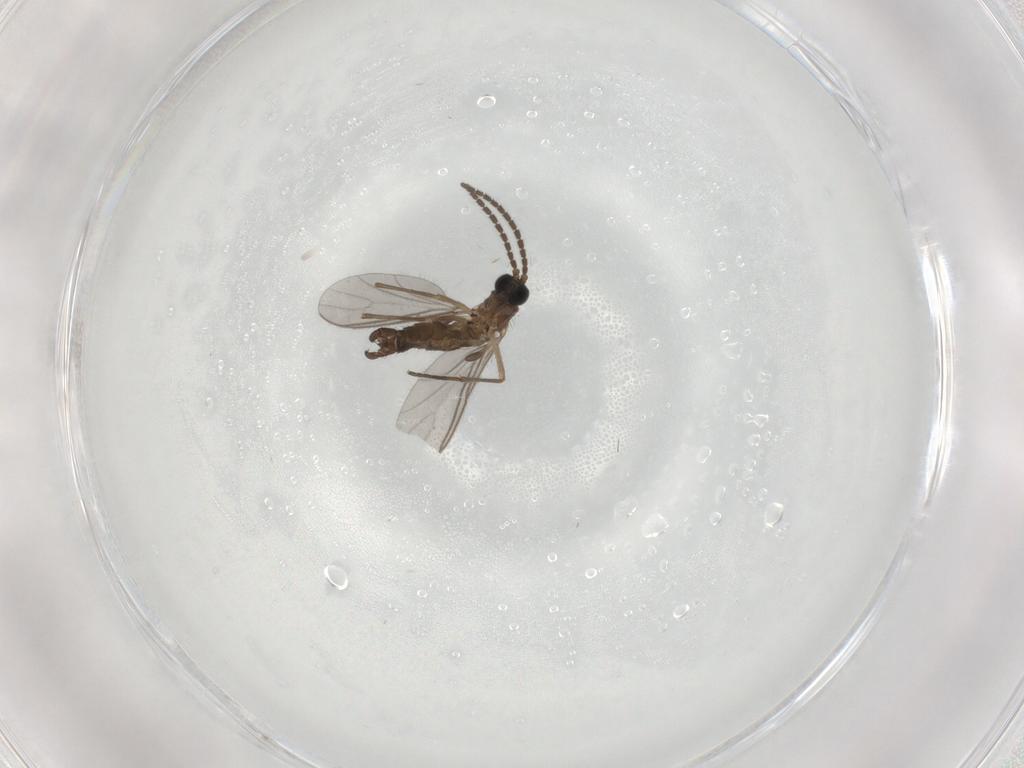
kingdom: Animalia
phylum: Arthropoda
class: Insecta
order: Diptera
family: Sciaridae
